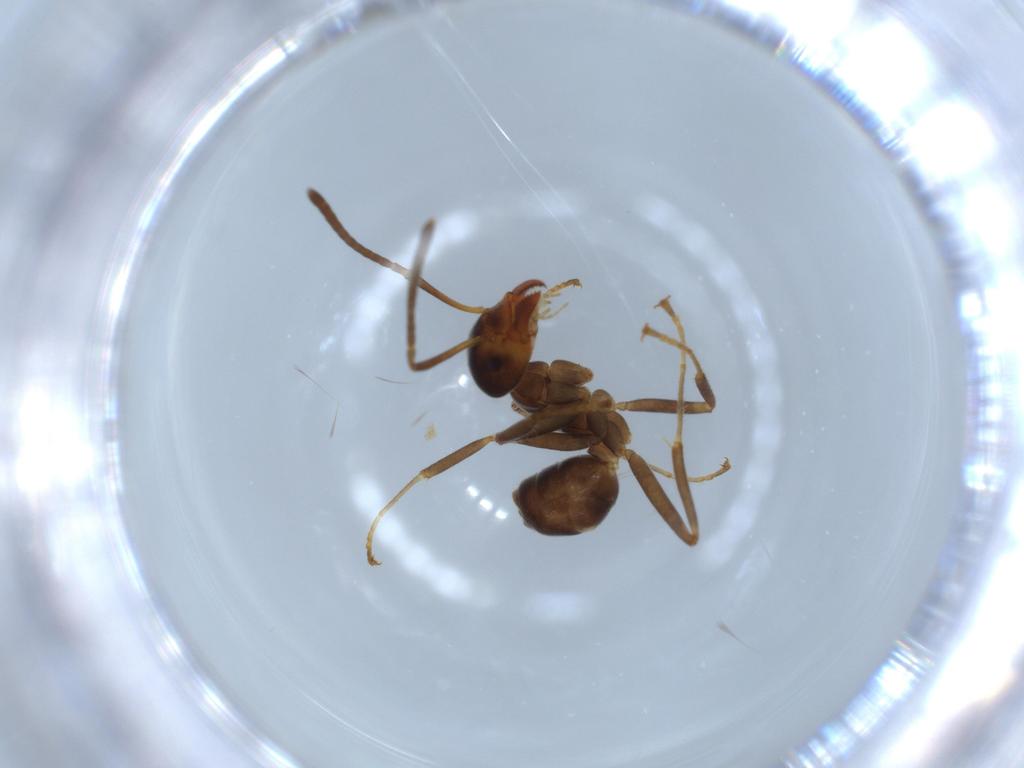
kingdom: Animalia
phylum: Arthropoda
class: Insecta
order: Hymenoptera
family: Formicidae
